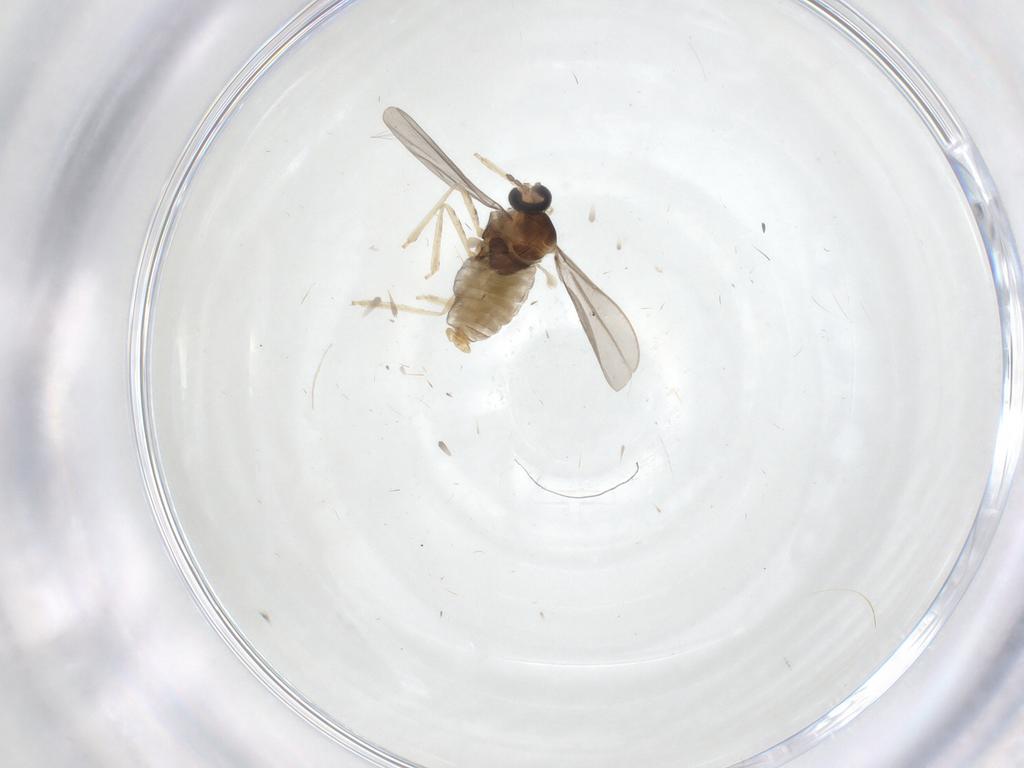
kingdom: Animalia
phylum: Arthropoda
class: Insecta
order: Diptera
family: Cecidomyiidae
